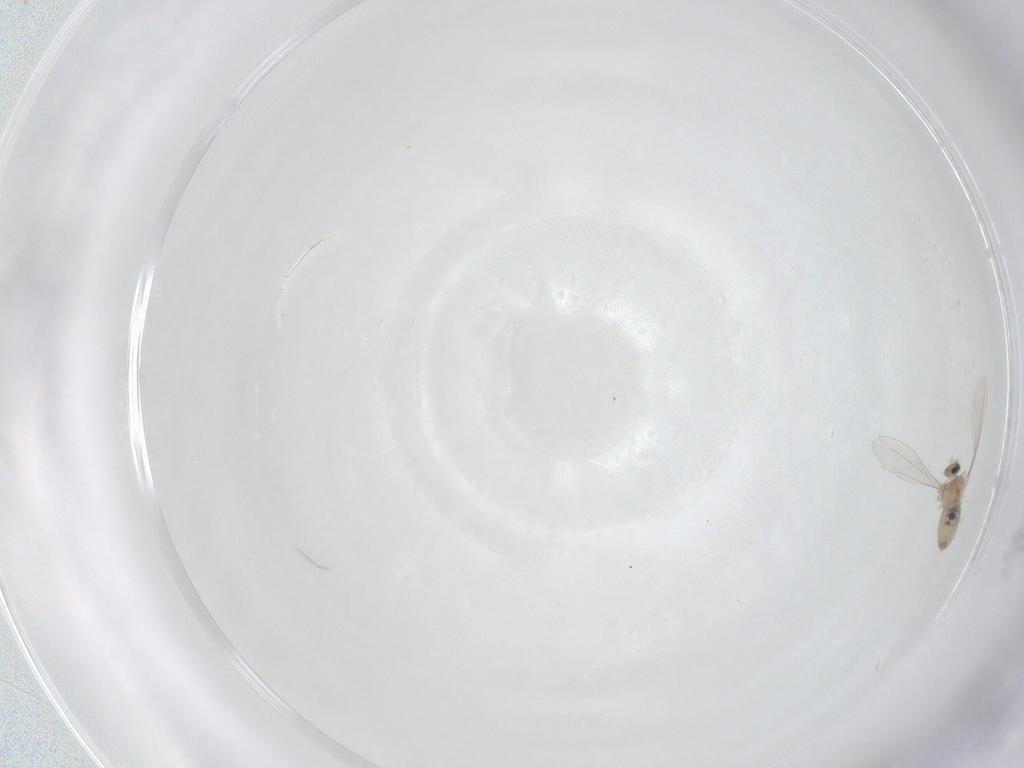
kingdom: Animalia
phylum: Arthropoda
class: Insecta
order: Diptera
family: Cecidomyiidae
